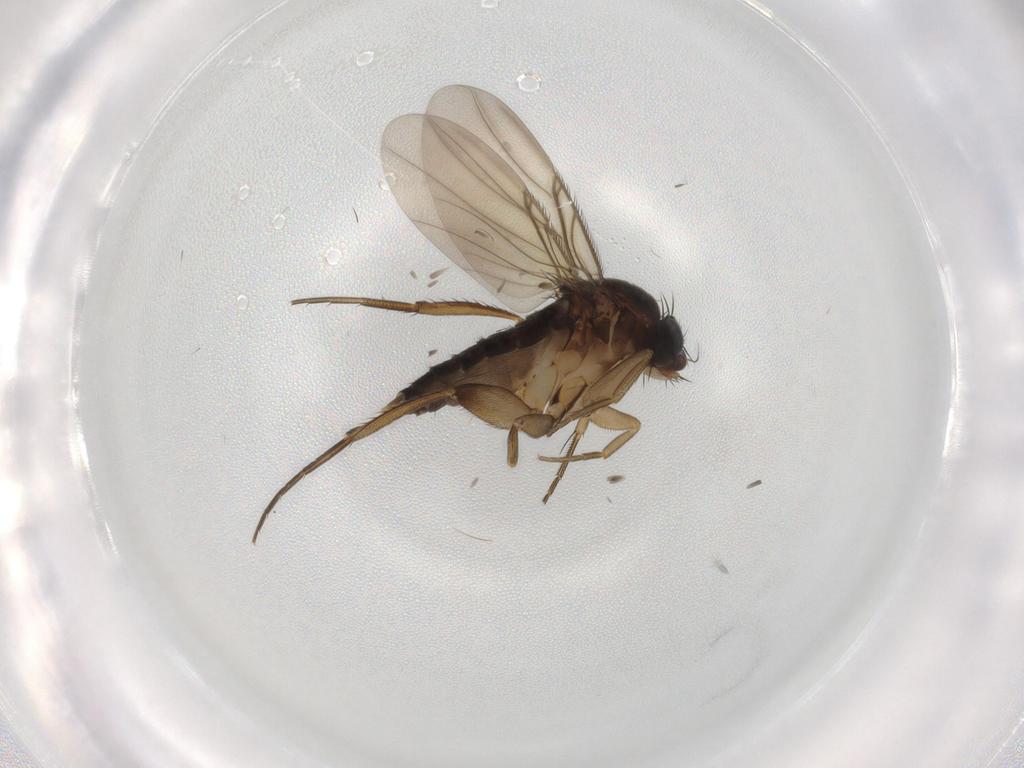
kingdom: Animalia
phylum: Arthropoda
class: Insecta
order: Diptera
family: Phoridae
